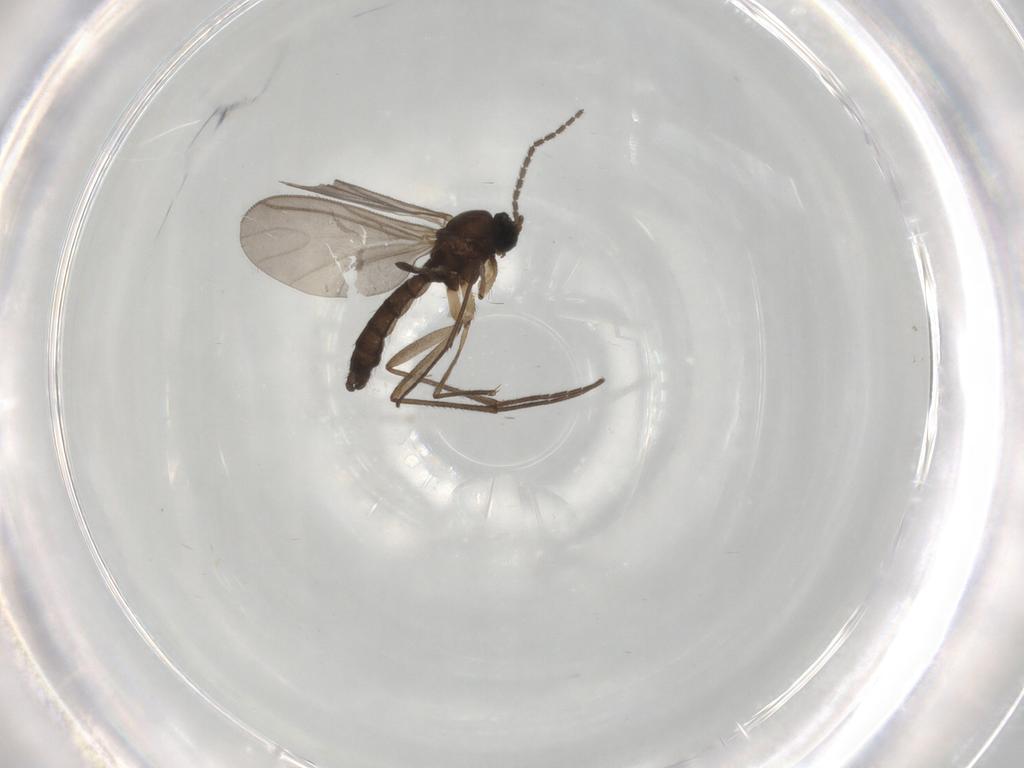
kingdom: Animalia
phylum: Arthropoda
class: Insecta
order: Diptera
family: Sciaridae
